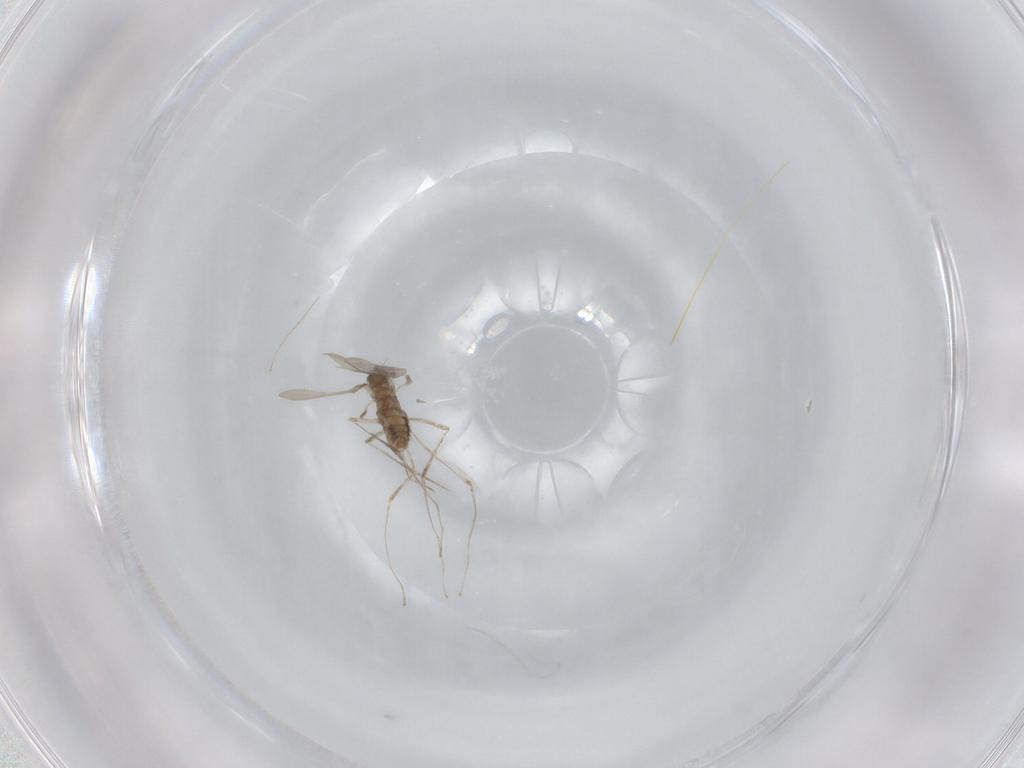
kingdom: Animalia
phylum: Arthropoda
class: Insecta
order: Diptera
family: Cecidomyiidae
